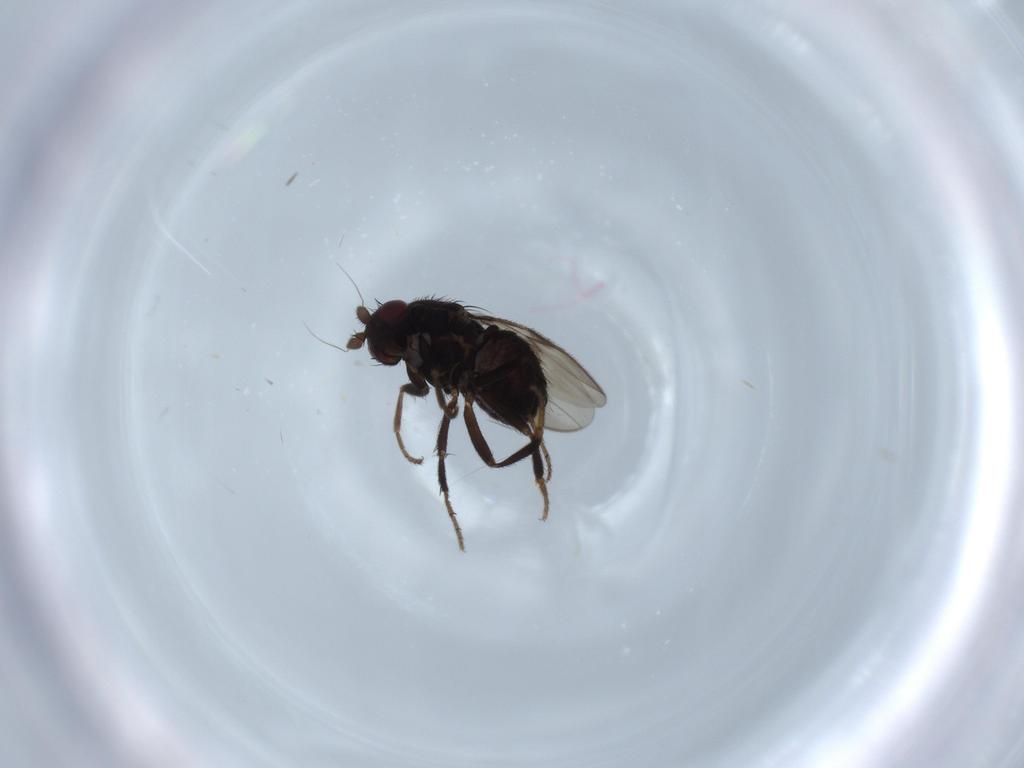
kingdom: Animalia
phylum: Arthropoda
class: Insecta
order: Diptera
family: Sphaeroceridae
